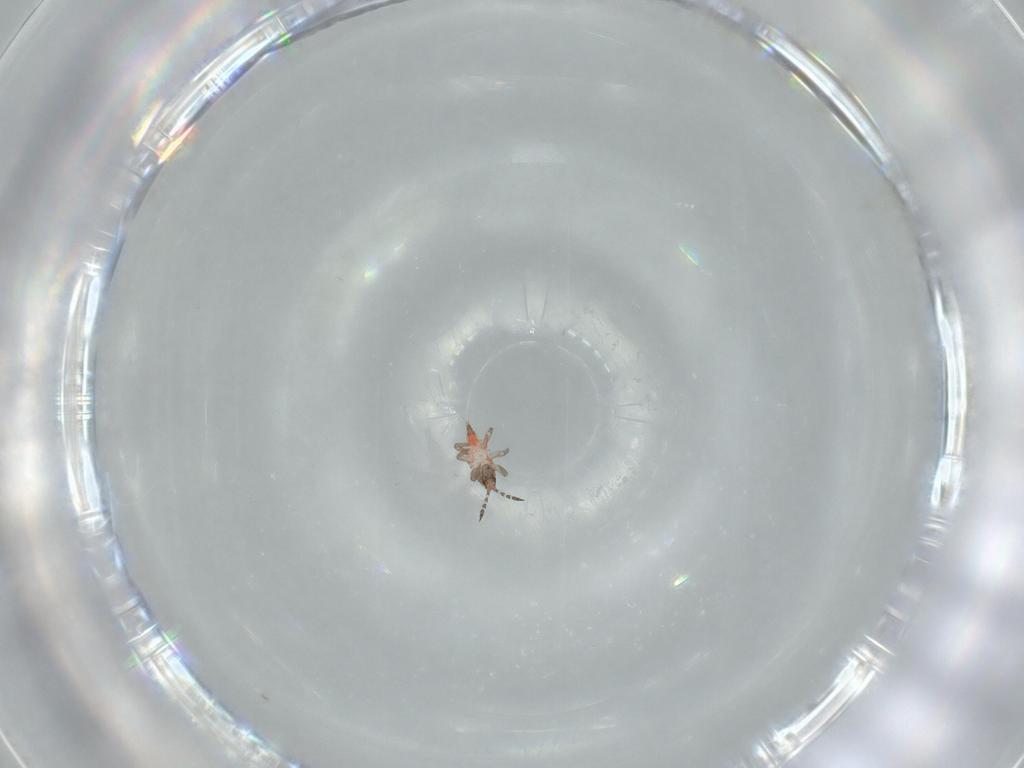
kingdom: Animalia
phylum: Arthropoda
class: Insecta
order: Thysanoptera
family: Phlaeothripidae
